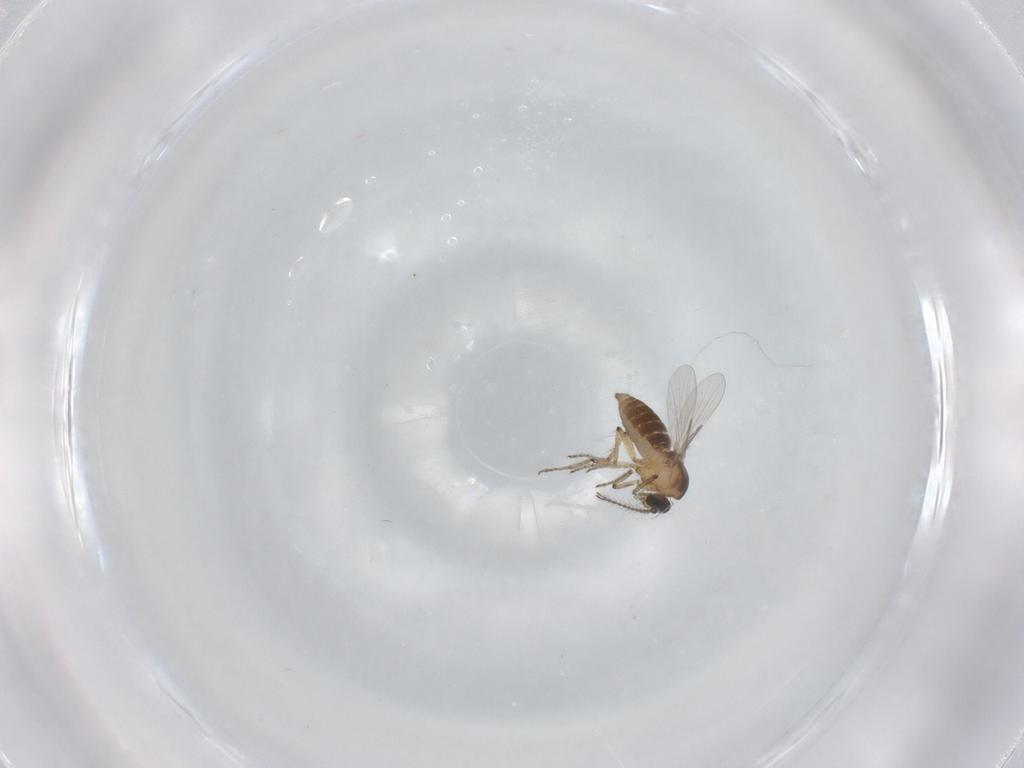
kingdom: Animalia
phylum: Arthropoda
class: Insecta
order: Diptera
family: Ceratopogonidae
